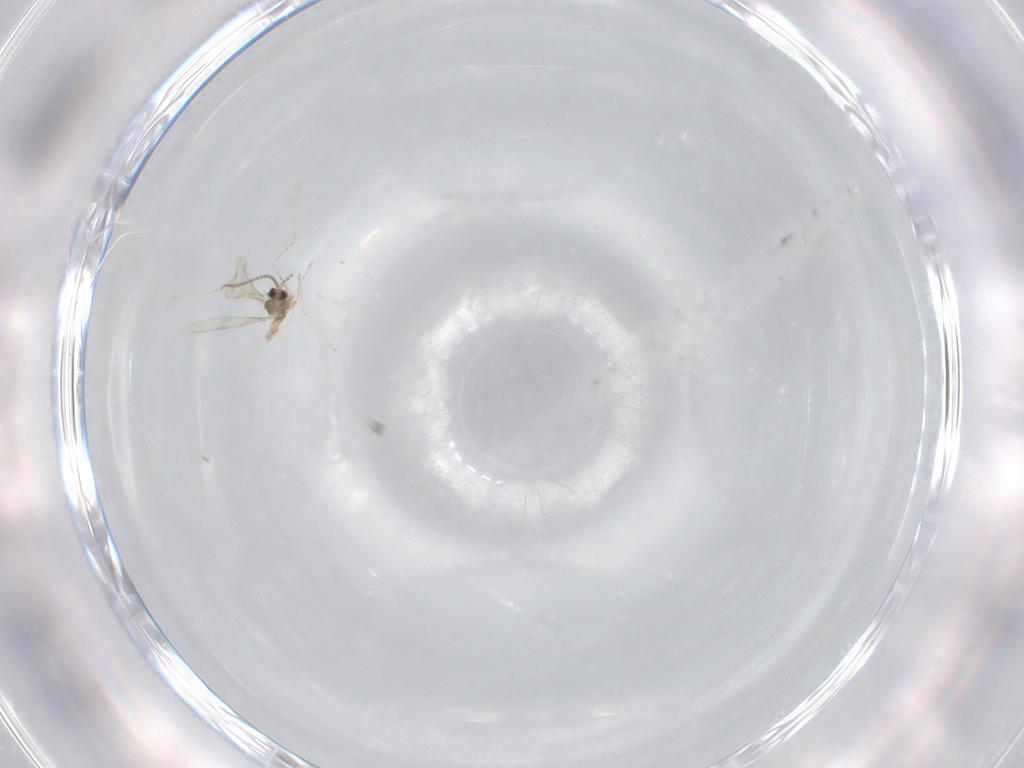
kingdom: Animalia
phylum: Arthropoda
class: Insecta
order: Diptera
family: Cecidomyiidae
